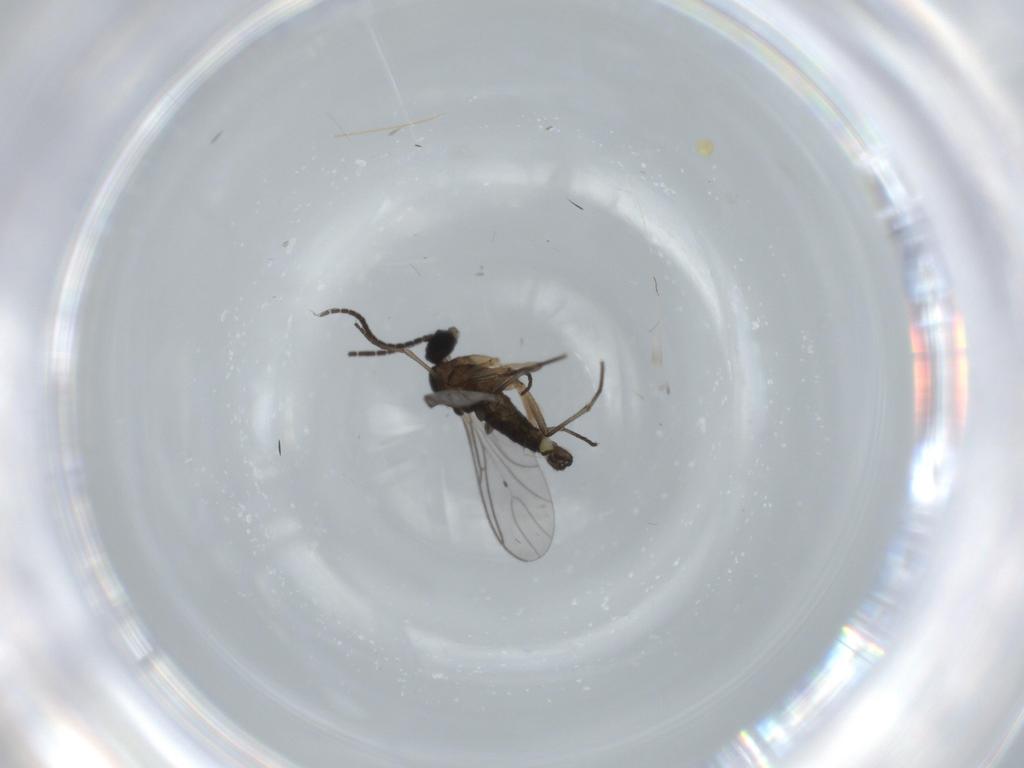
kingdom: Animalia
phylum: Arthropoda
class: Insecta
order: Diptera
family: Sciaridae
